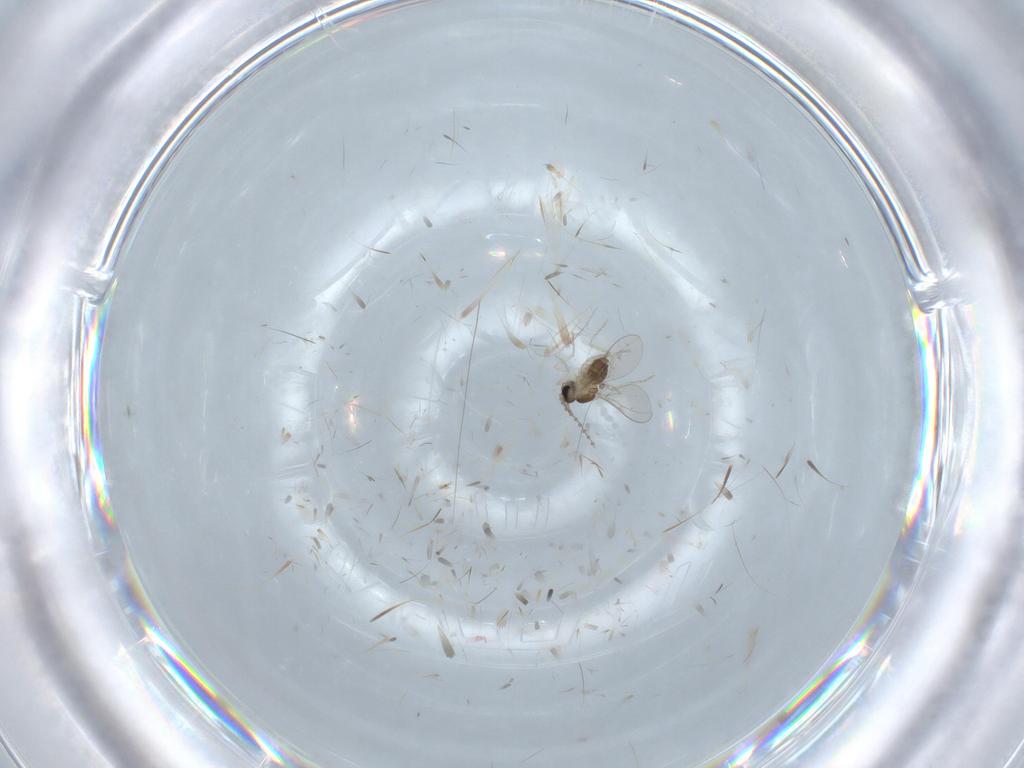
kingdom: Animalia
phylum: Arthropoda
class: Insecta
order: Diptera
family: Cecidomyiidae
